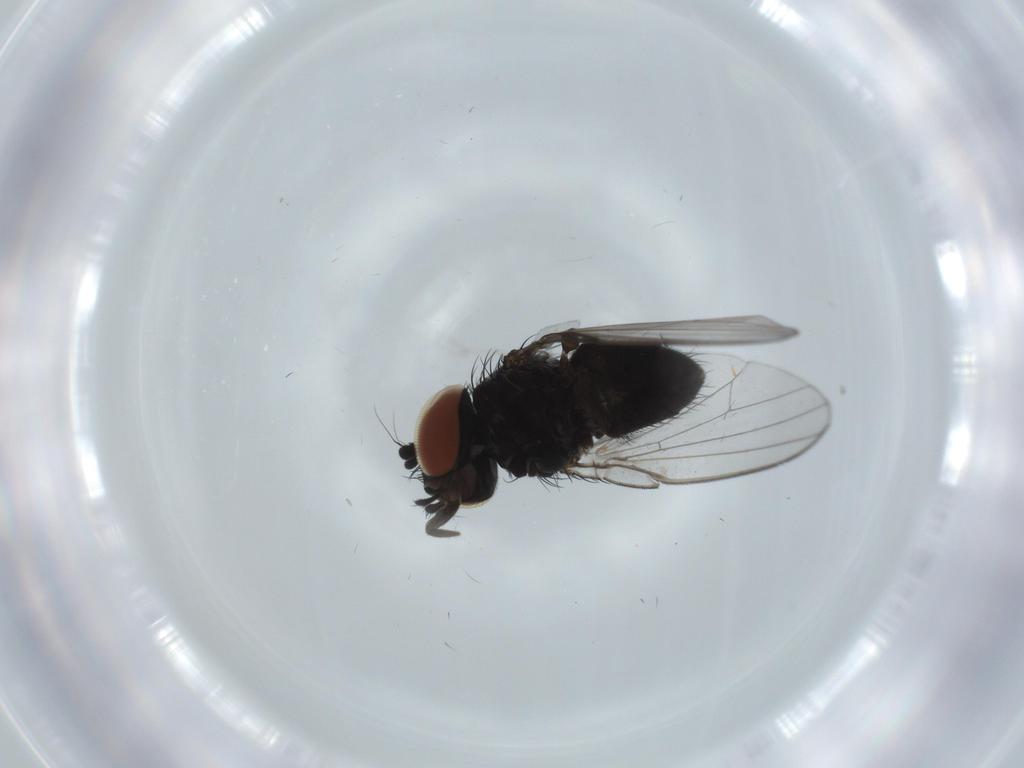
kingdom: Animalia
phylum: Arthropoda
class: Insecta
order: Diptera
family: Milichiidae
